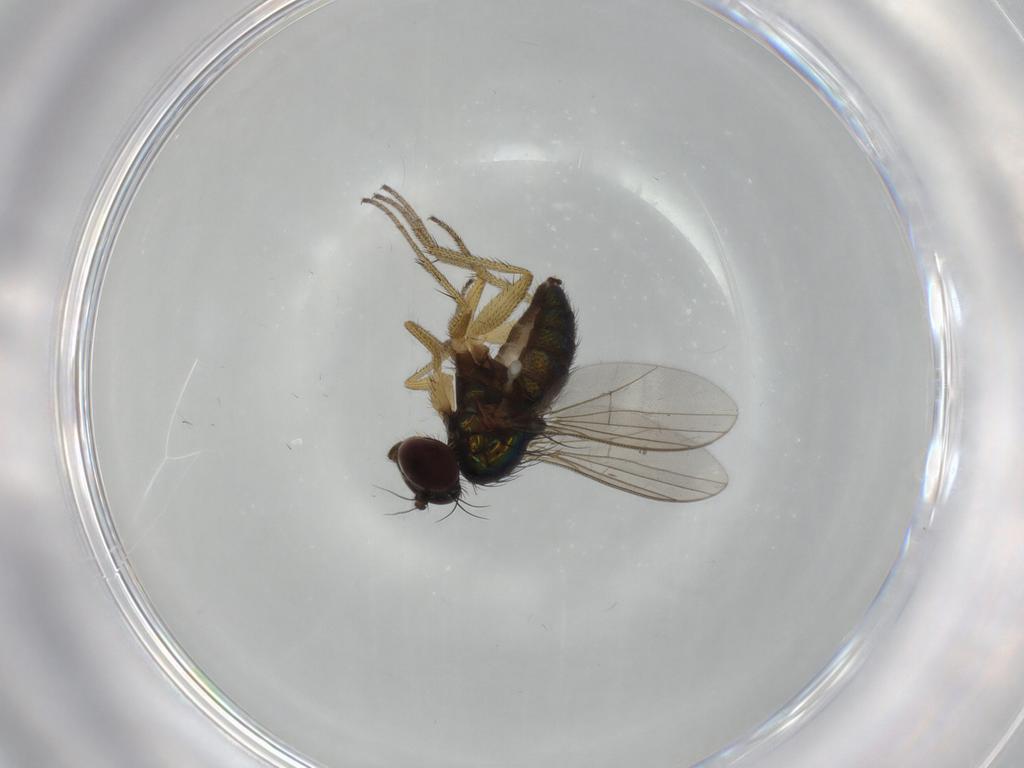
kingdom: Animalia
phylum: Arthropoda
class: Insecta
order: Diptera
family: Dolichopodidae
